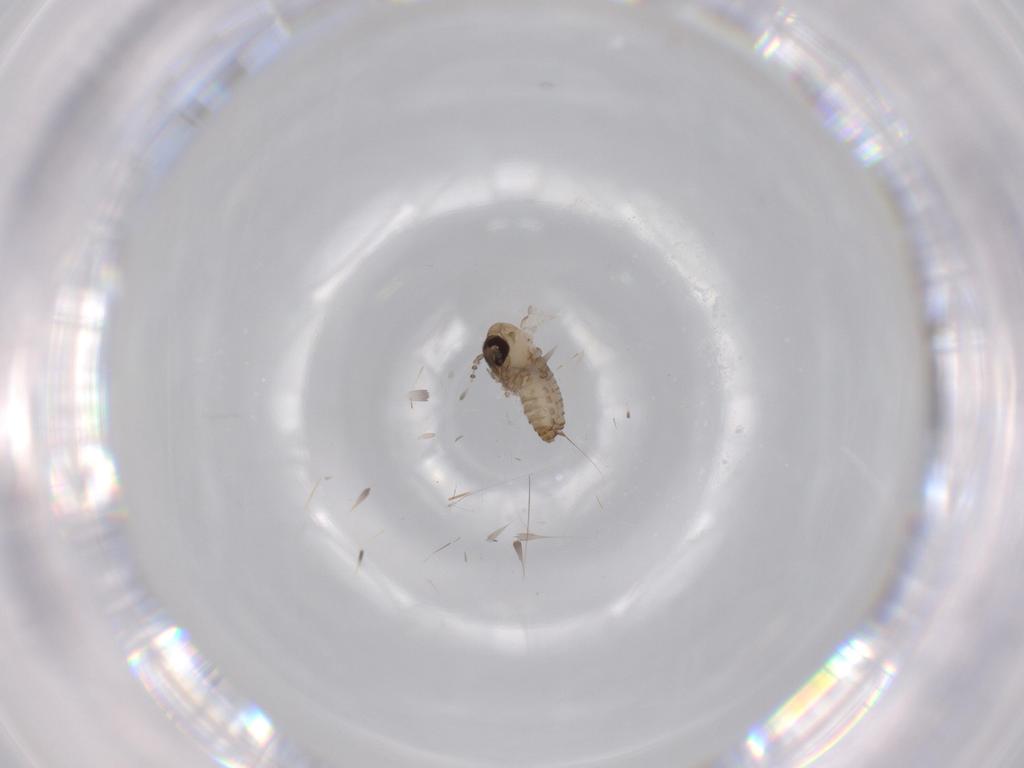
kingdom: Animalia
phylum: Arthropoda
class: Insecta
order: Diptera
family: Psychodidae
